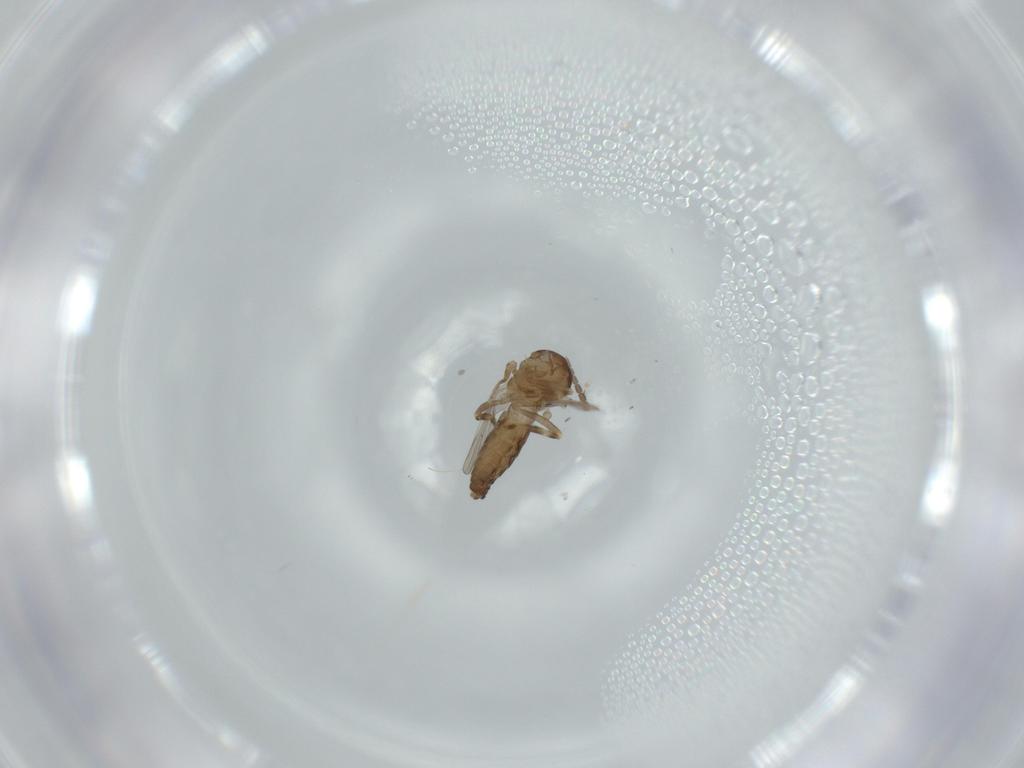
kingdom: Animalia
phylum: Arthropoda
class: Insecta
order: Diptera
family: Ceratopogonidae
